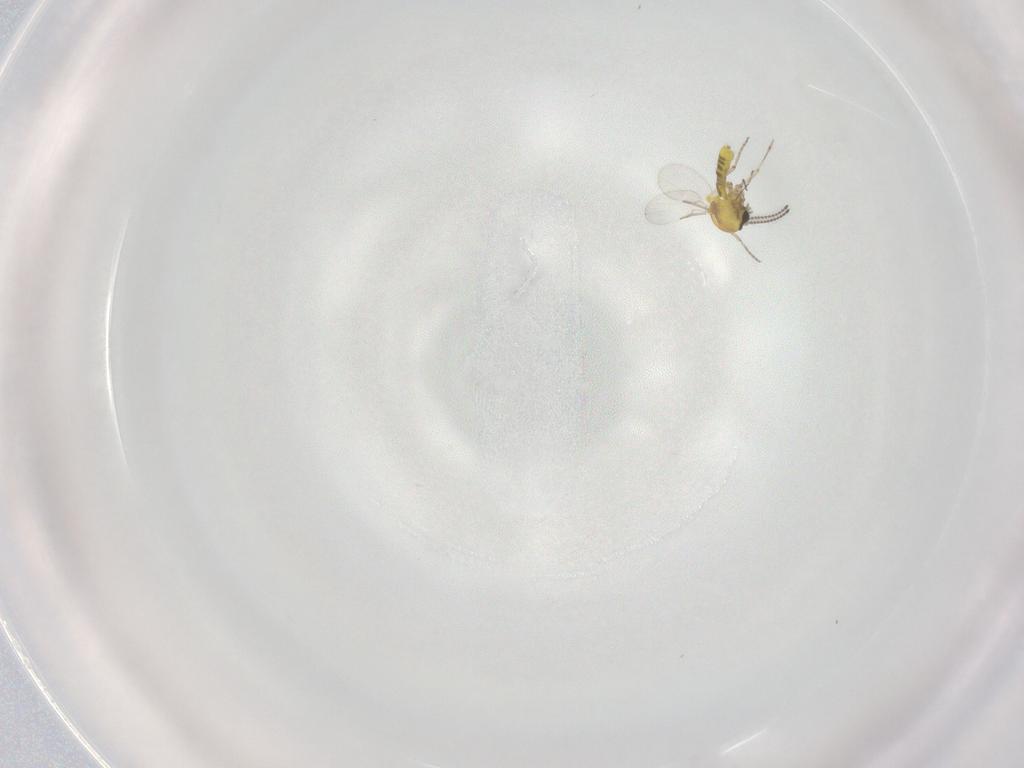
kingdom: Animalia
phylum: Arthropoda
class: Insecta
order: Diptera
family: Ceratopogonidae
